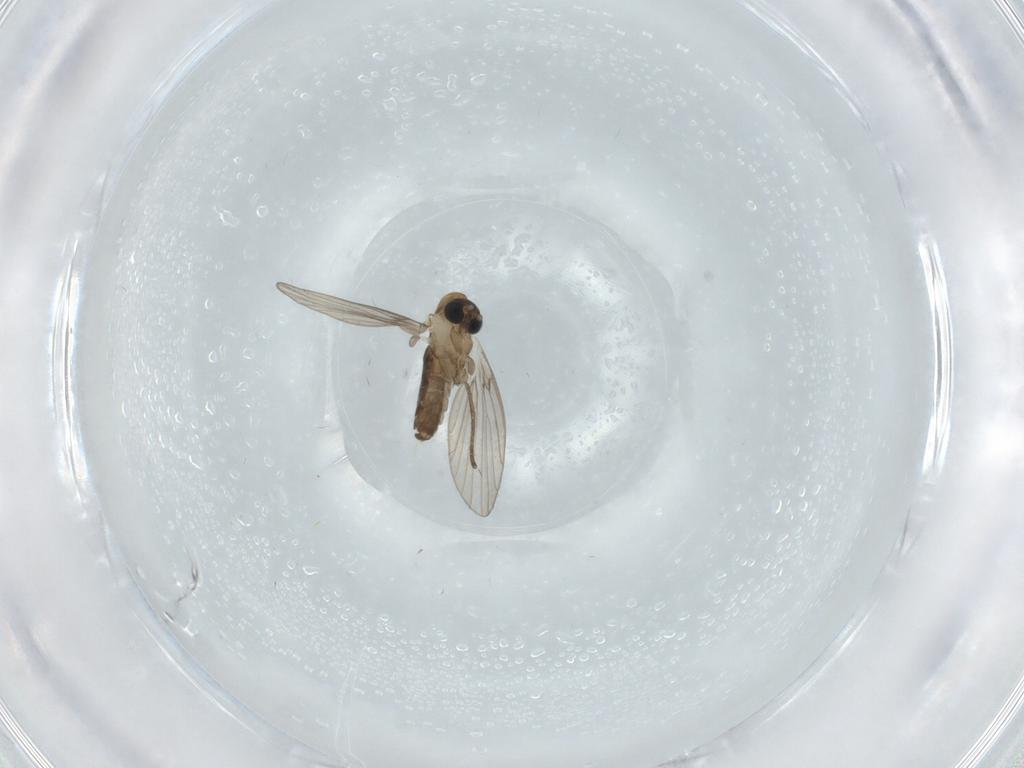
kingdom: Animalia
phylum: Arthropoda
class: Insecta
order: Diptera
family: Psychodidae
